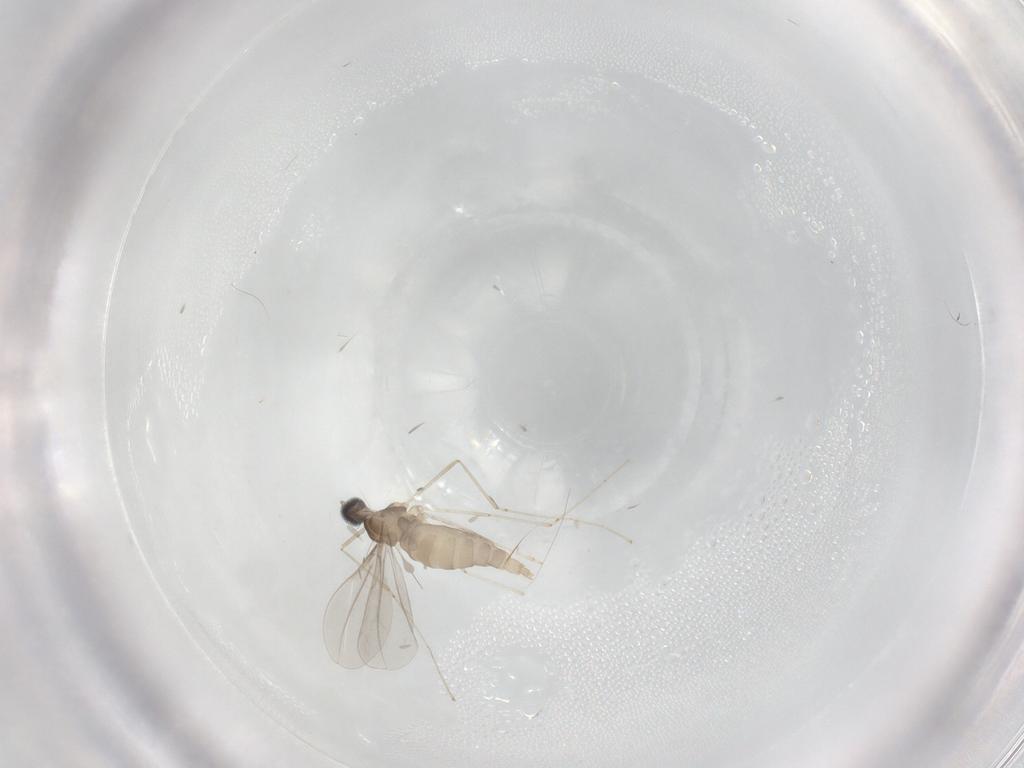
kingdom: Animalia
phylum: Arthropoda
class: Insecta
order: Diptera
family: Cecidomyiidae
